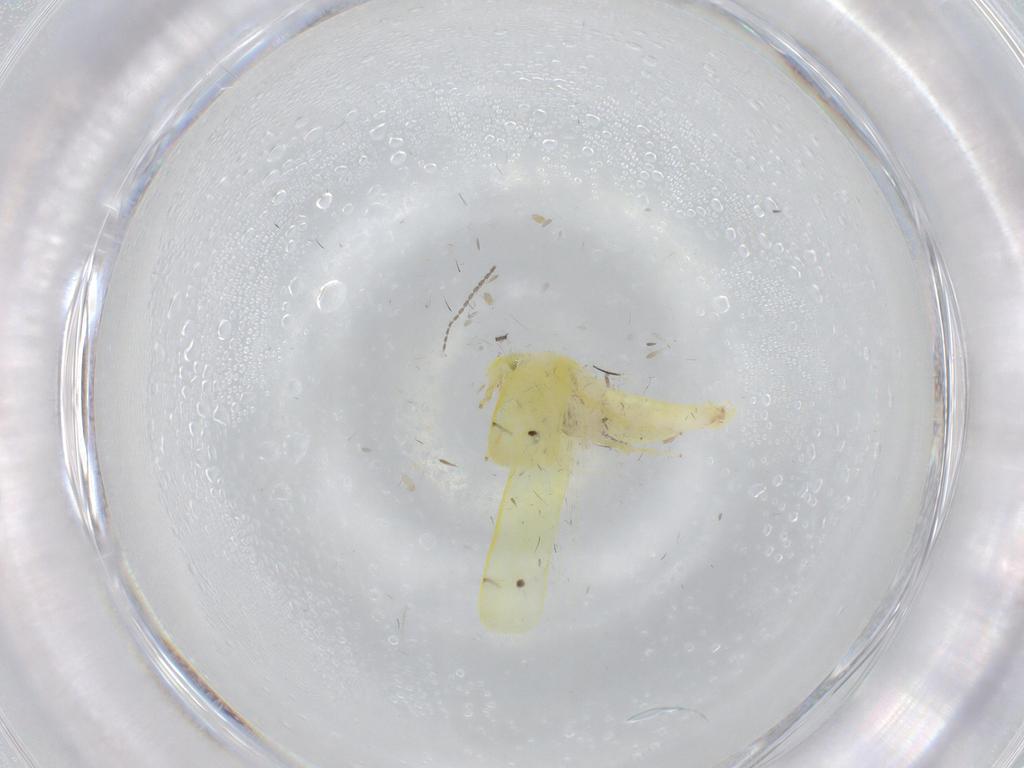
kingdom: Animalia
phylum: Arthropoda
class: Insecta
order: Hemiptera
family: Cicadellidae
